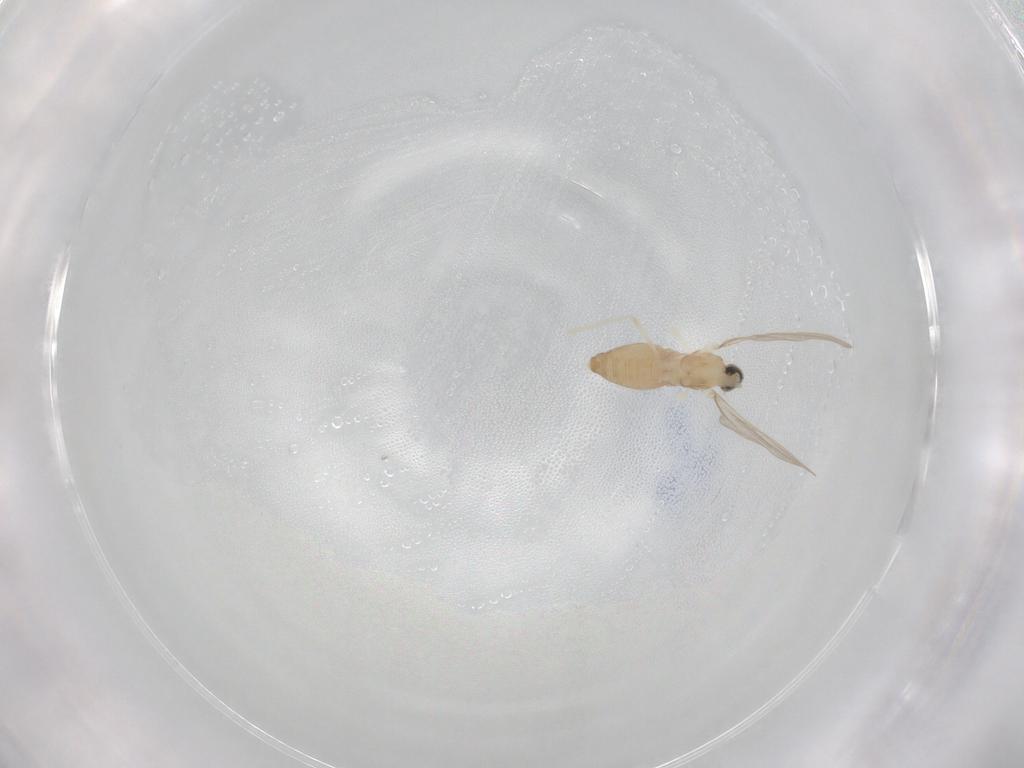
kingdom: Animalia
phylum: Arthropoda
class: Insecta
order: Diptera
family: Cecidomyiidae
